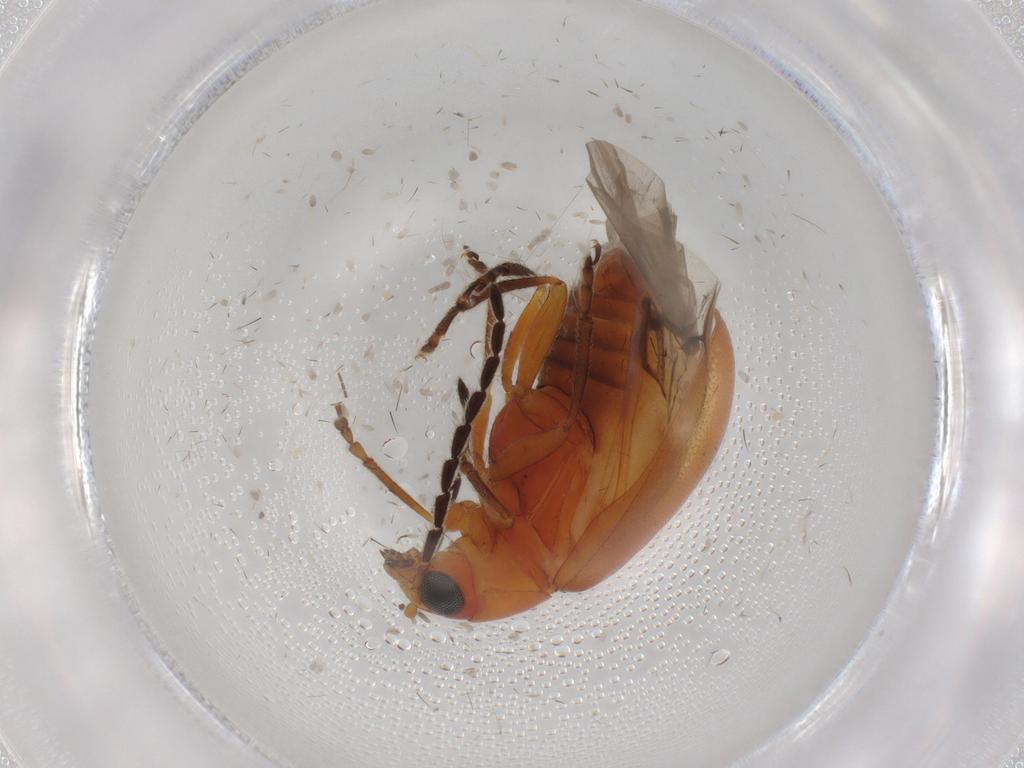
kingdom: Animalia
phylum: Arthropoda
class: Insecta
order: Coleoptera
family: Chrysomelidae
